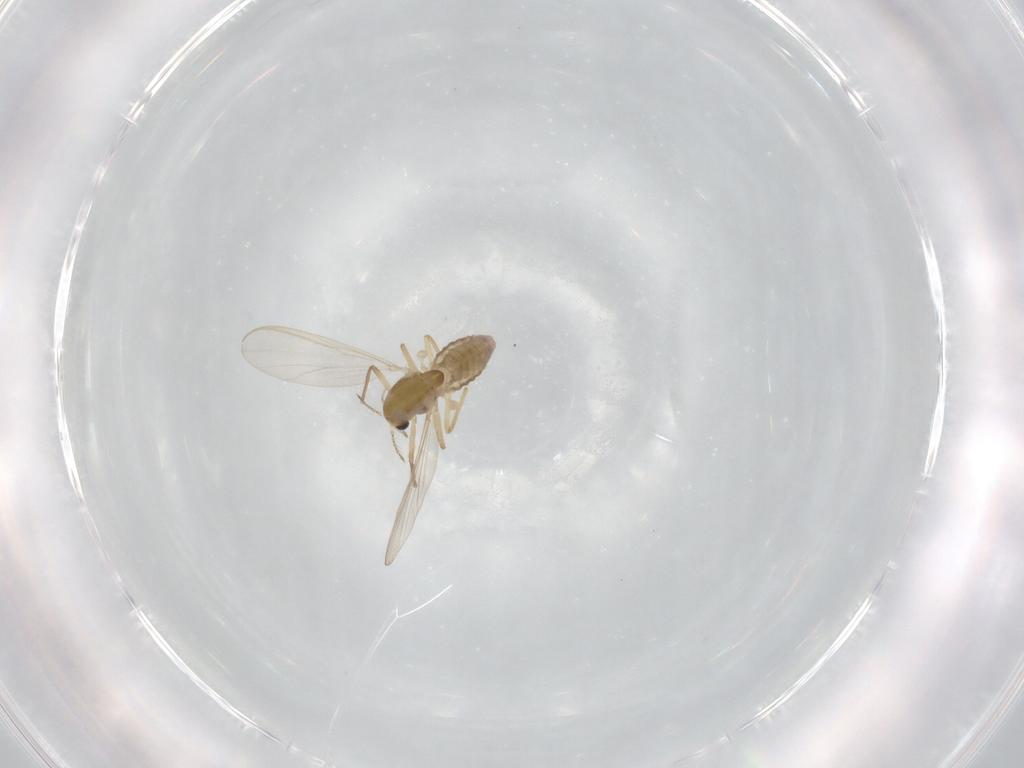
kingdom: Animalia
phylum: Arthropoda
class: Insecta
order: Diptera
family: Chironomidae
